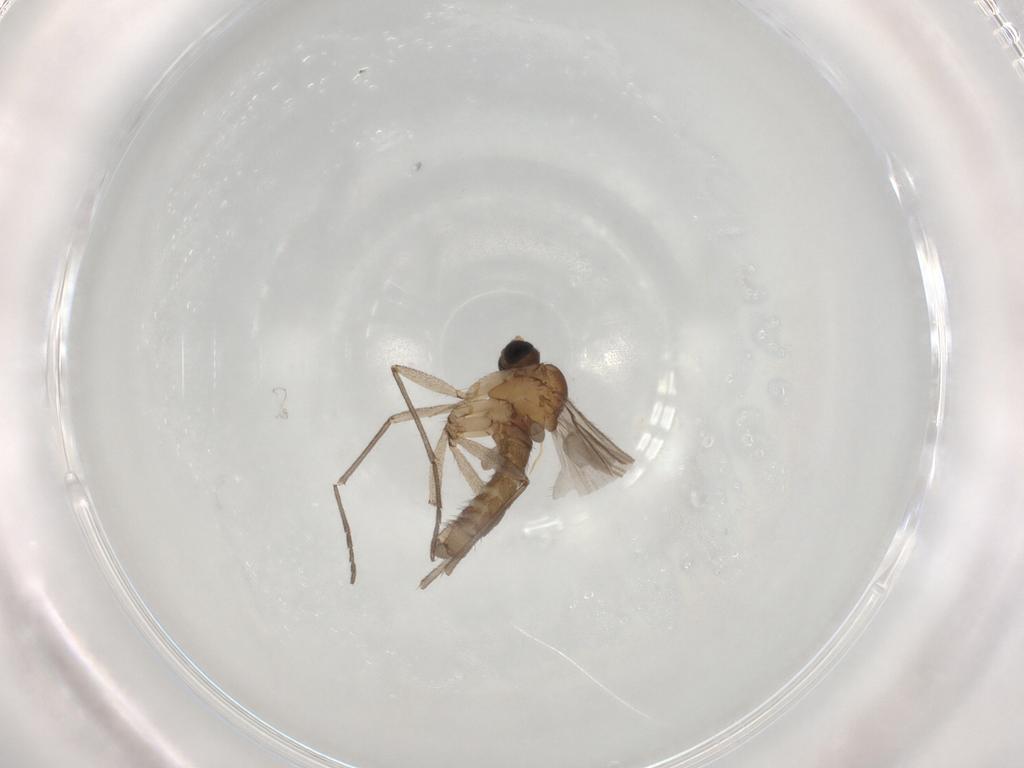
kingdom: Animalia
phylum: Arthropoda
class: Insecta
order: Diptera
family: Sciaridae
